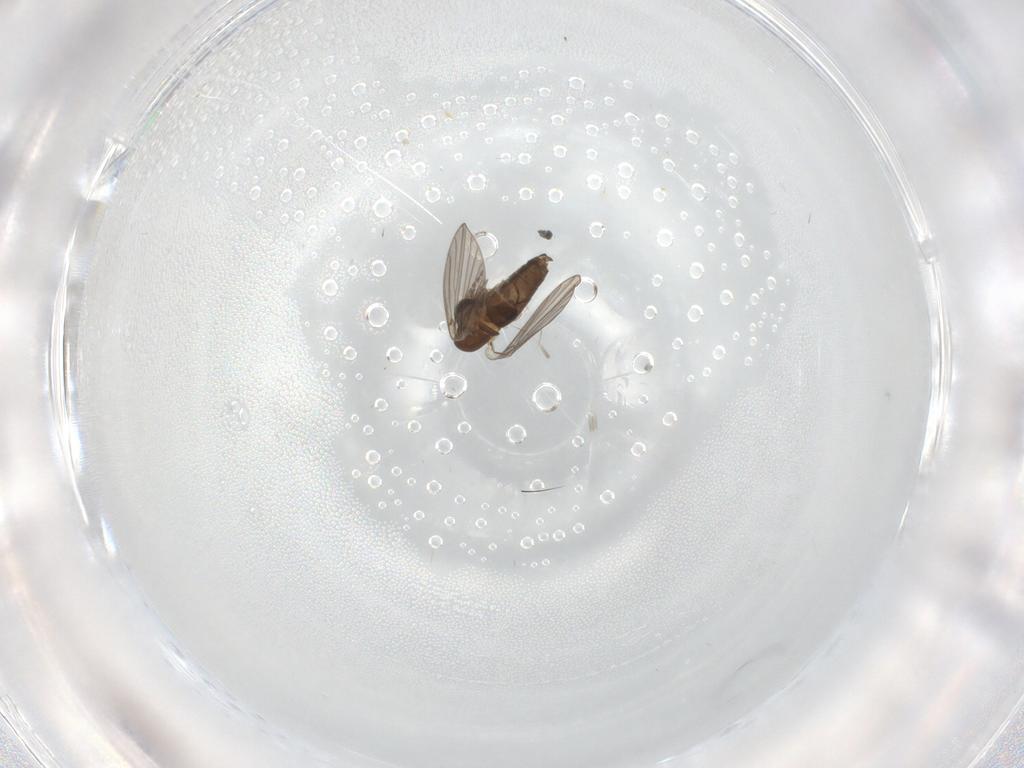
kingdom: Animalia
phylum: Arthropoda
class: Insecta
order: Diptera
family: Psychodidae
